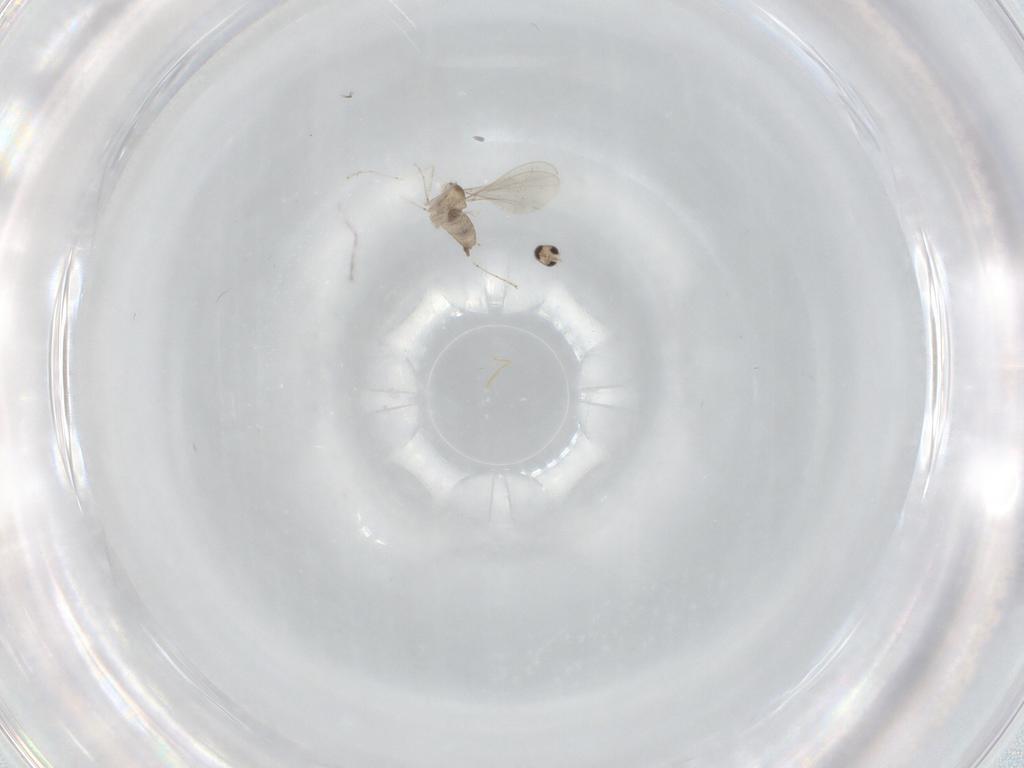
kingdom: Animalia
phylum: Arthropoda
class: Insecta
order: Diptera
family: Cecidomyiidae
